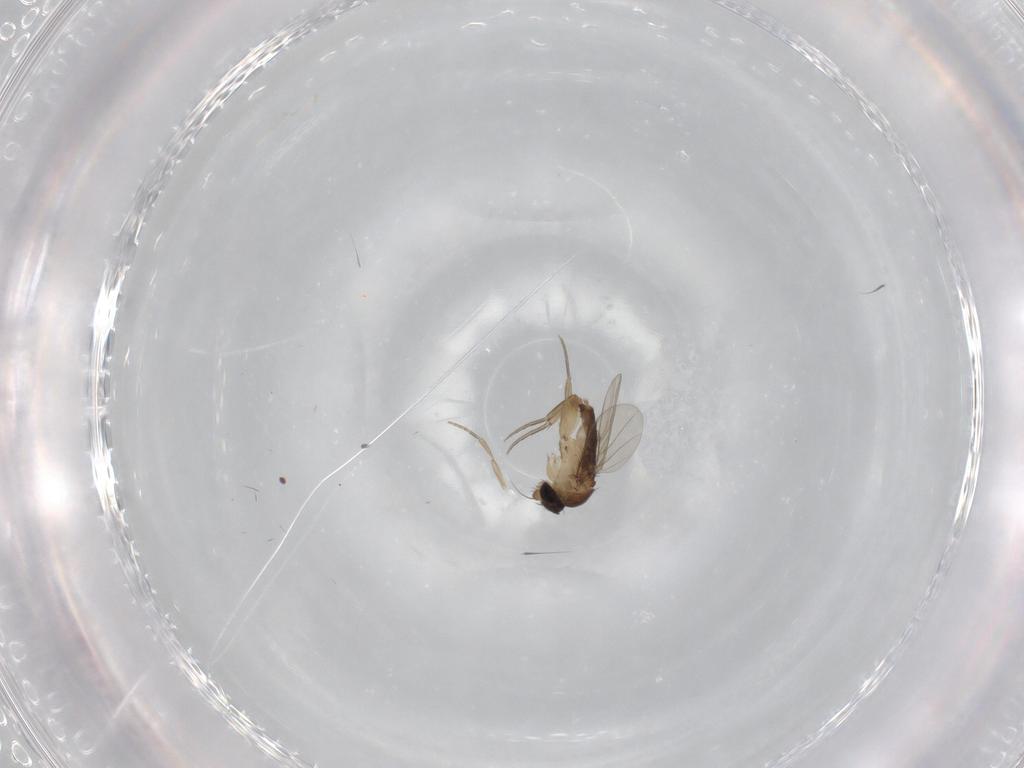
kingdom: Animalia
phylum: Arthropoda
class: Insecta
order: Diptera
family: Phoridae
